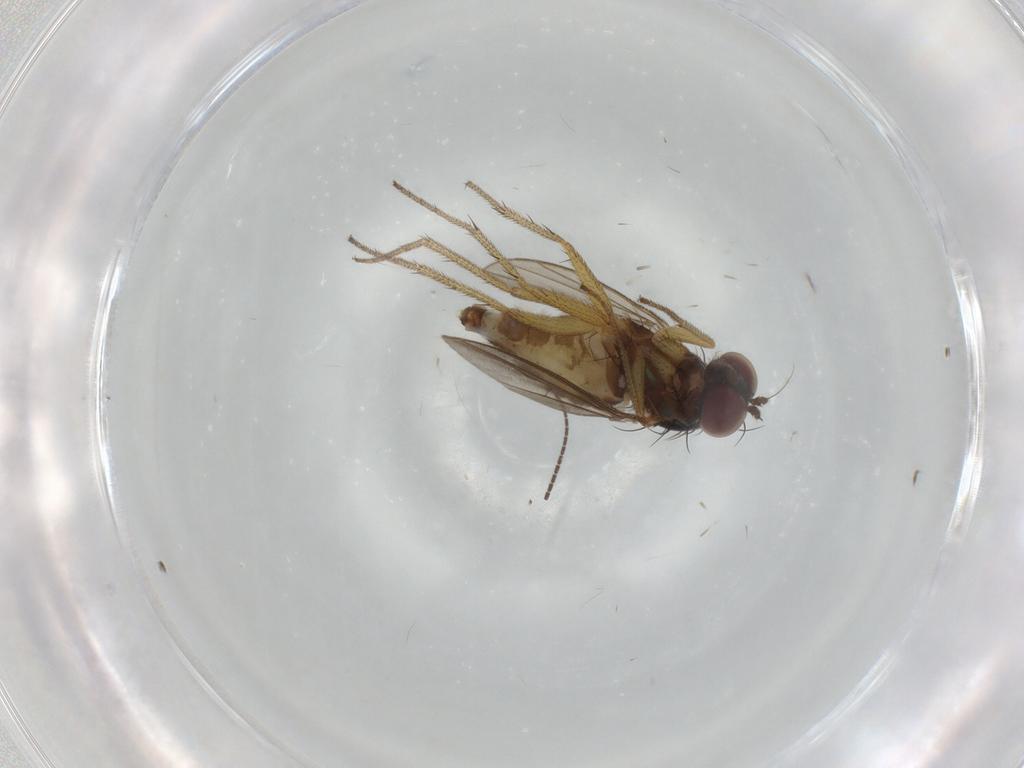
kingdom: Animalia
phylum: Arthropoda
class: Insecta
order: Diptera
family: Dolichopodidae
